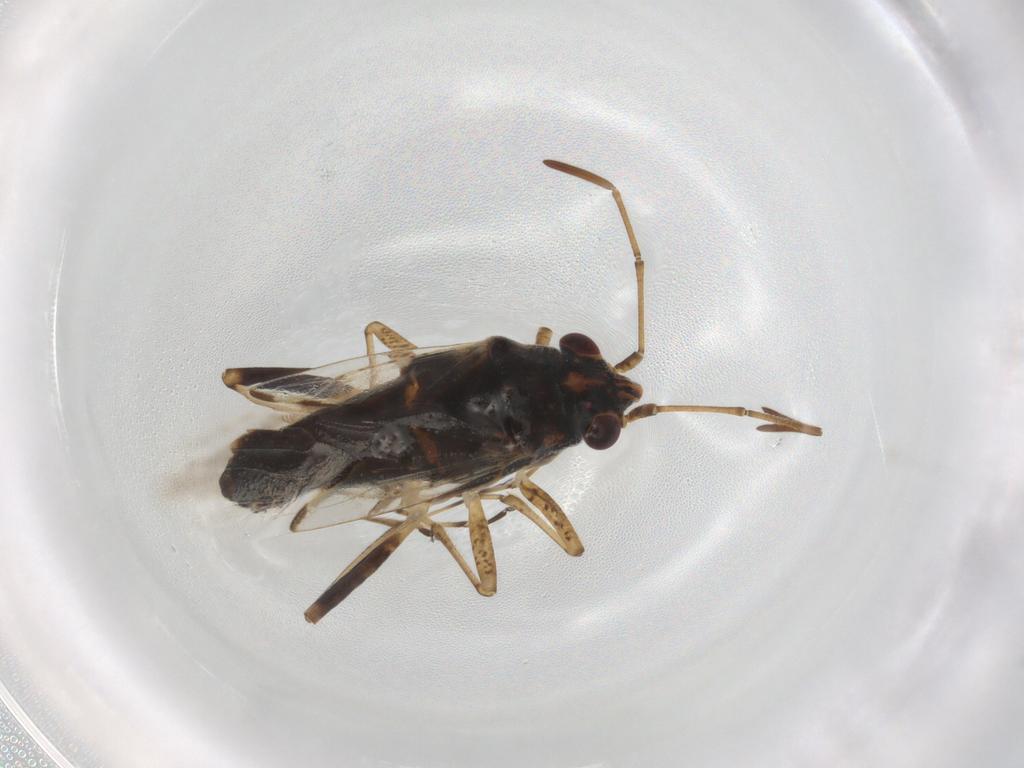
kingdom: Animalia
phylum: Arthropoda
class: Insecta
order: Hemiptera
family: Lygaeidae
